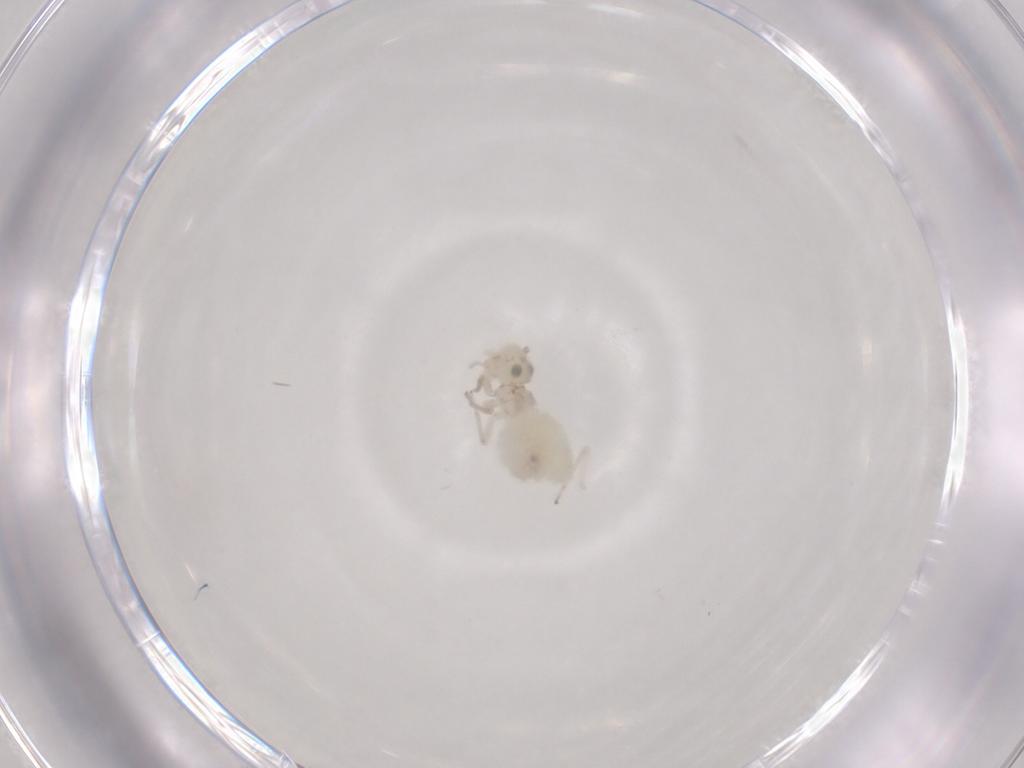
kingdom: Animalia
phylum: Arthropoda
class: Insecta
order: Psocodea
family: Caeciliusidae
